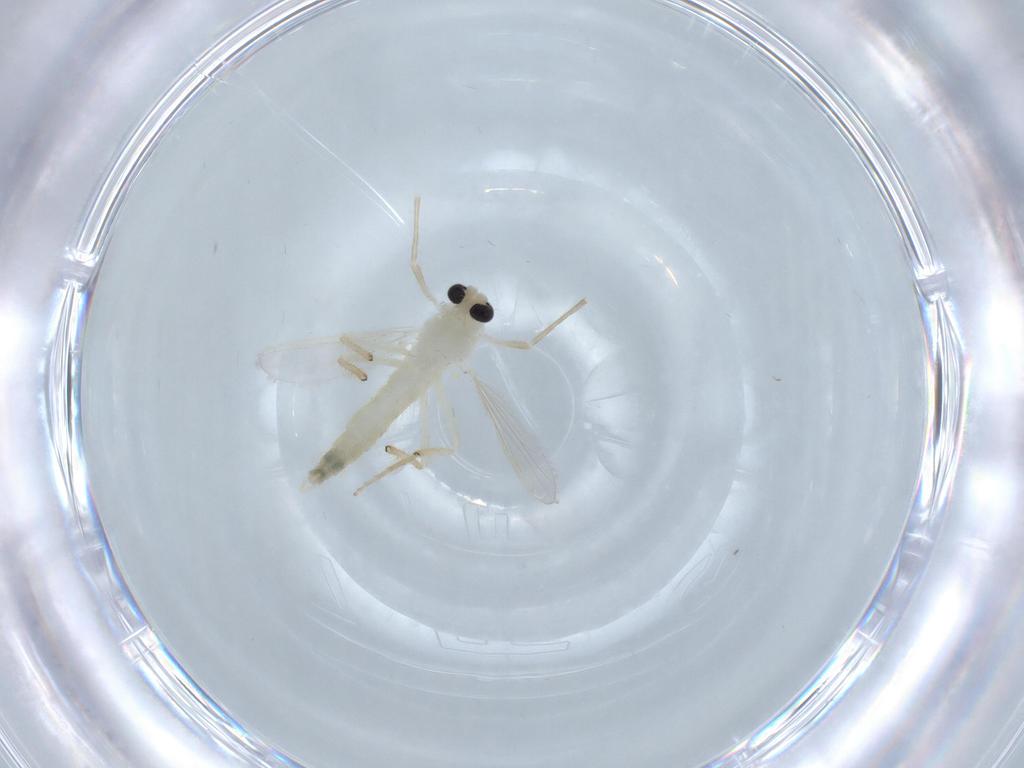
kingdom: Animalia
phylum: Arthropoda
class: Insecta
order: Diptera
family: Chironomidae
